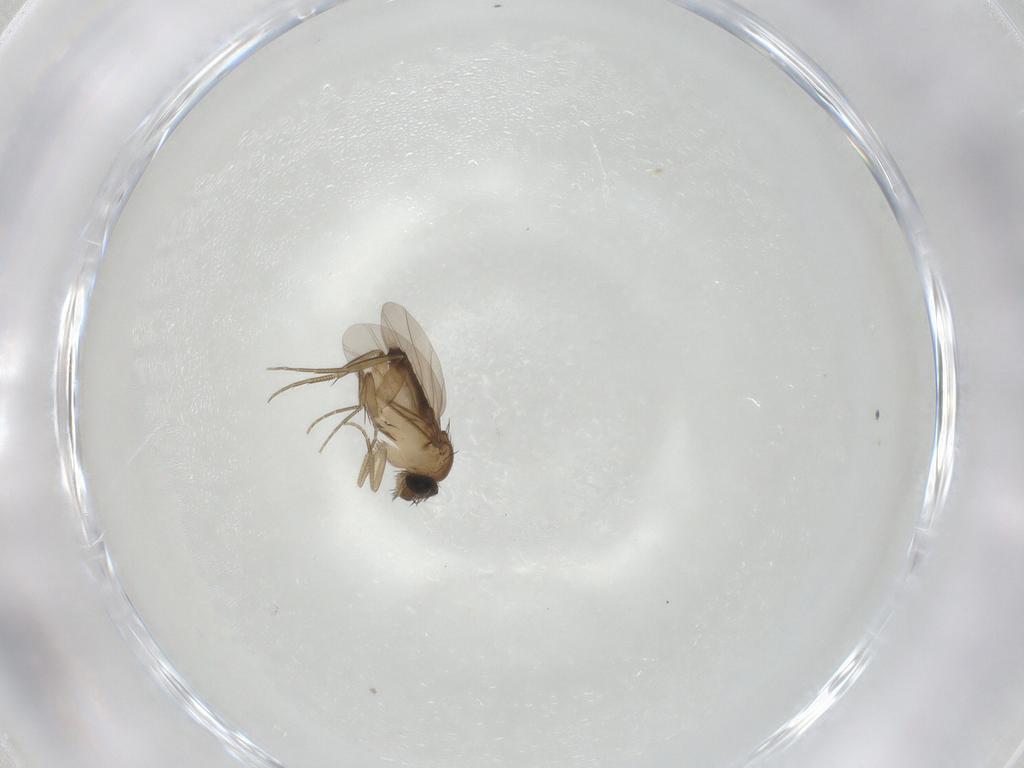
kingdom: Animalia
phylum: Arthropoda
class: Insecta
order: Diptera
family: Phoridae
